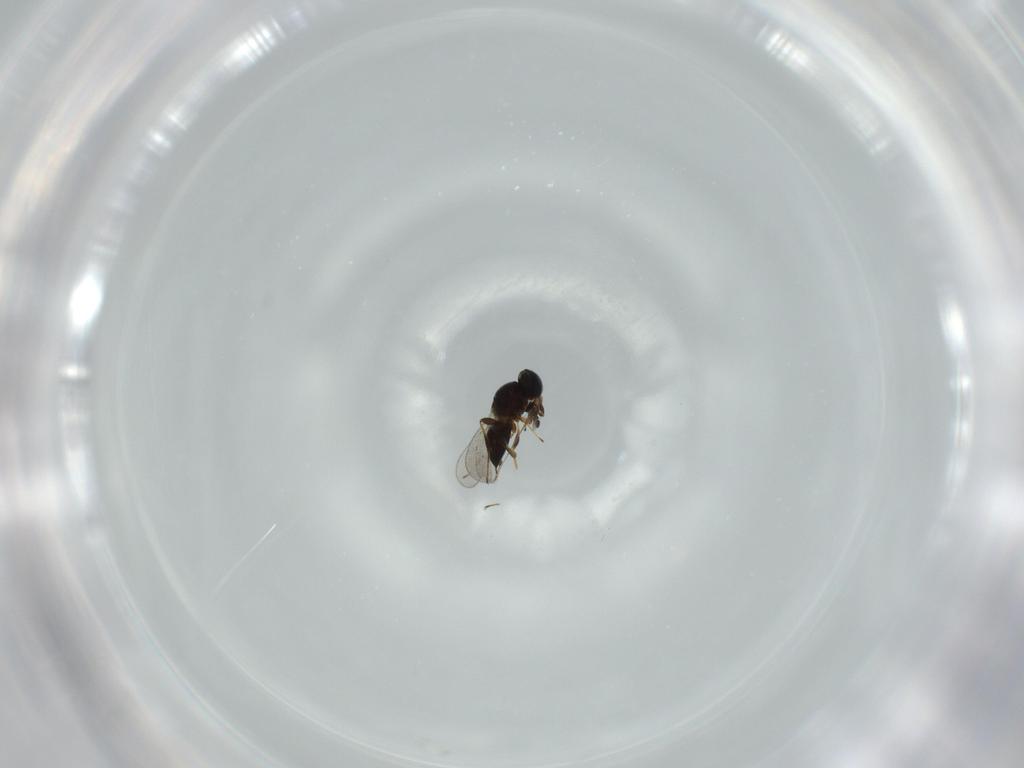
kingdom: Animalia
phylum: Arthropoda
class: Insecta
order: Hymenoptera
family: Platygastridae
